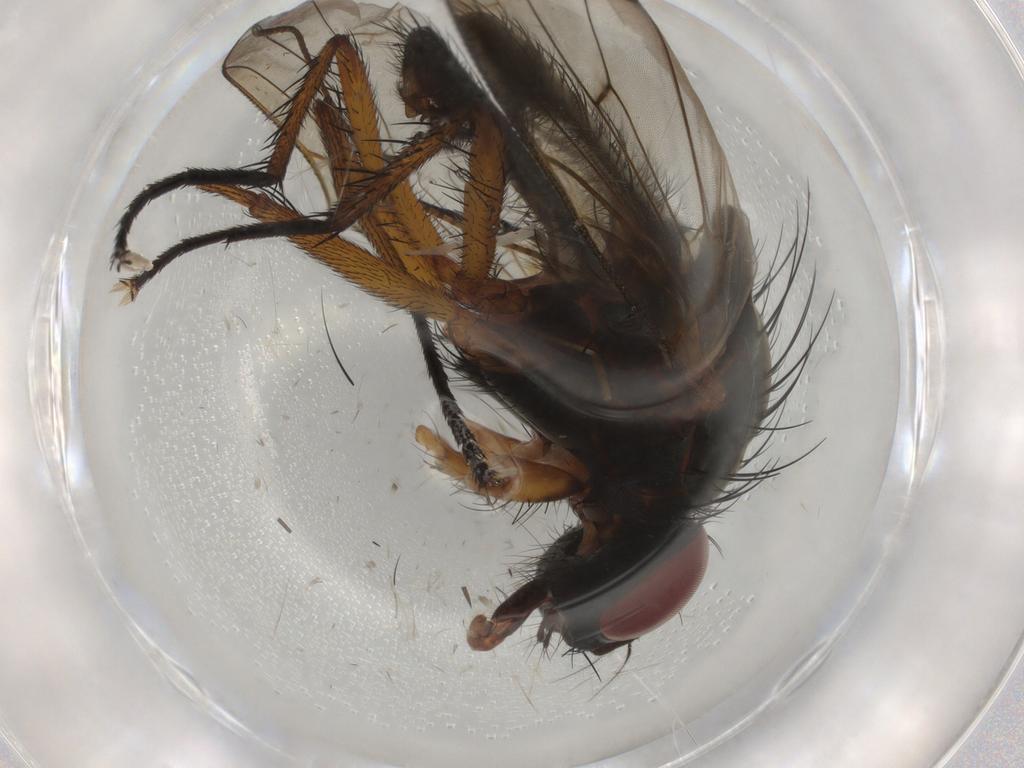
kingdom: Animalia
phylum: Arthropoda
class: Insecta
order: Diptera
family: Anthomyiidae
